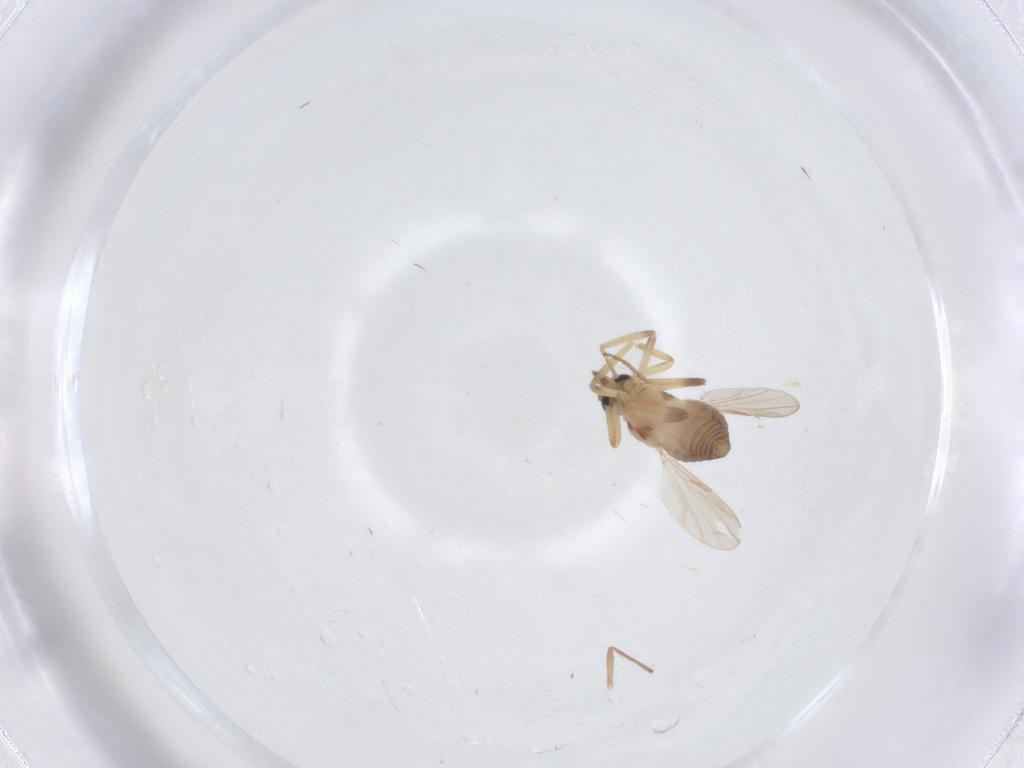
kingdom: Animalia
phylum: Arthropoda
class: Insecta
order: Diptera
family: Ceratopogonidae
